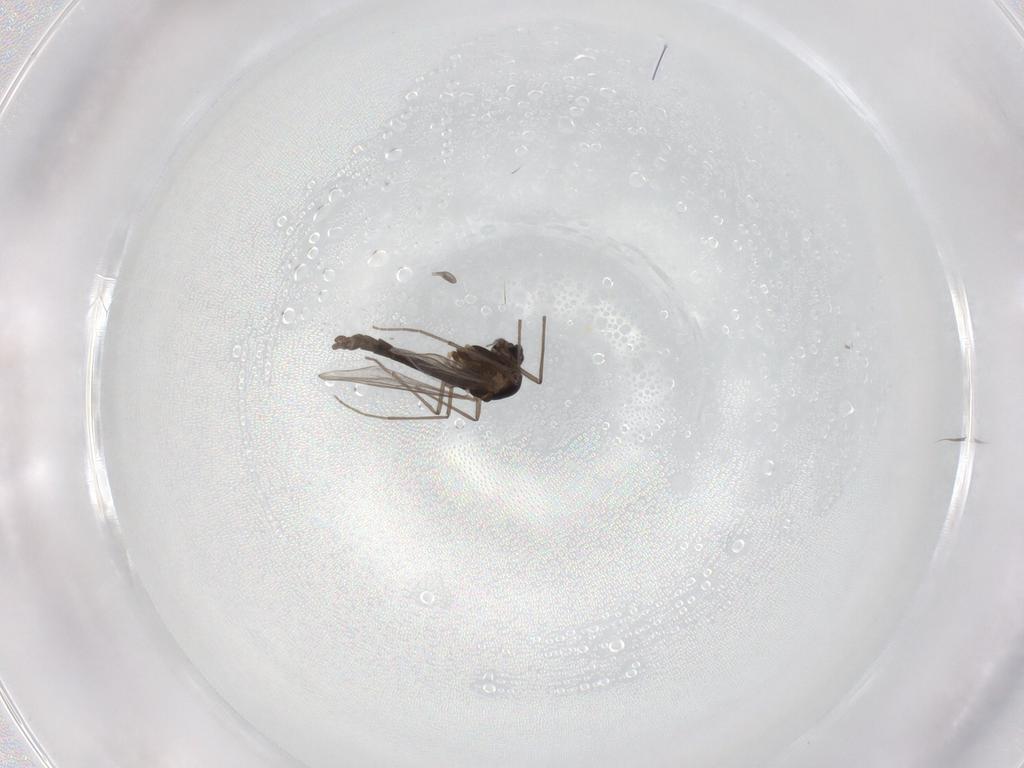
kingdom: Animalia
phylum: Arthropoda
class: Insecta
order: Diptera
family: Chironomidae
